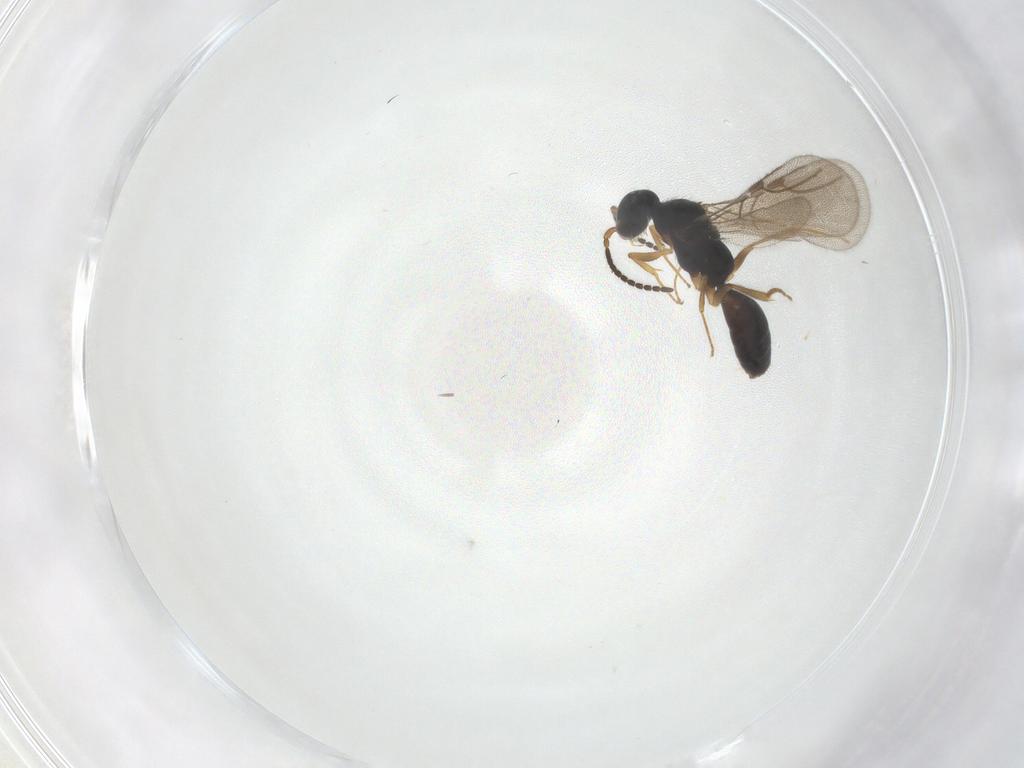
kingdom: Animalia
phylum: Arthropoda
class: Insecta
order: Hymenoptera
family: Bethylidae
